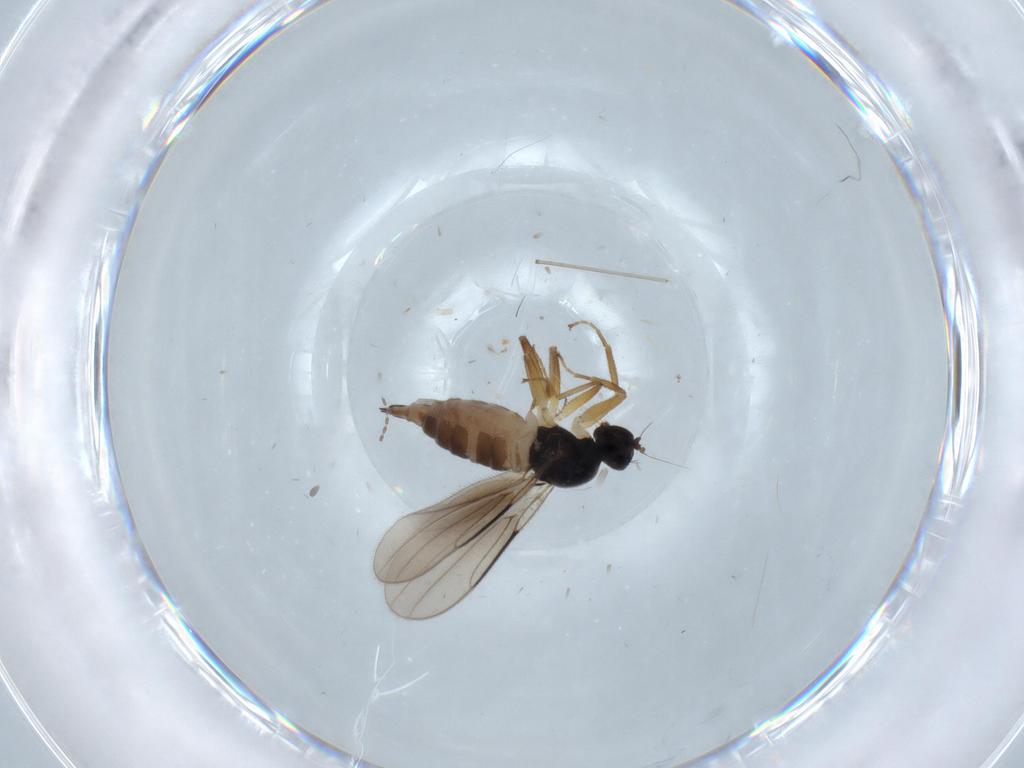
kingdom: Animalia
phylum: Arthropoda
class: Insecta
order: Diptera
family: Hybotidae
